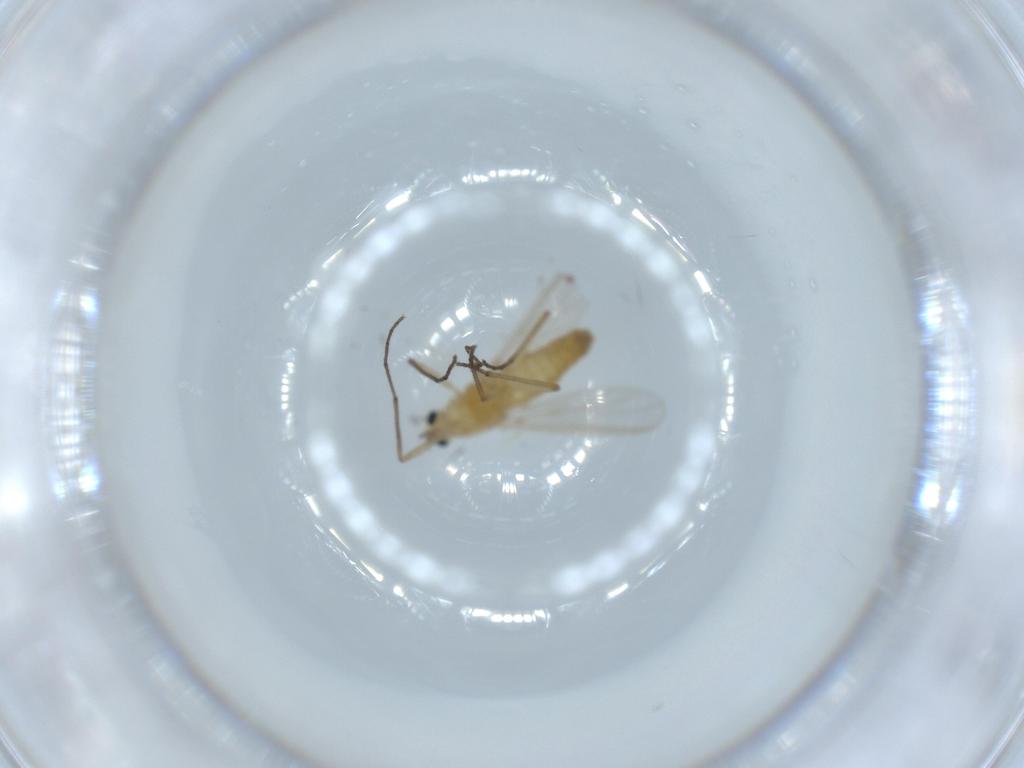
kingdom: Animalia
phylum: Arthropoda
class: Insecta
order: Diptera
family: Chironomidae
